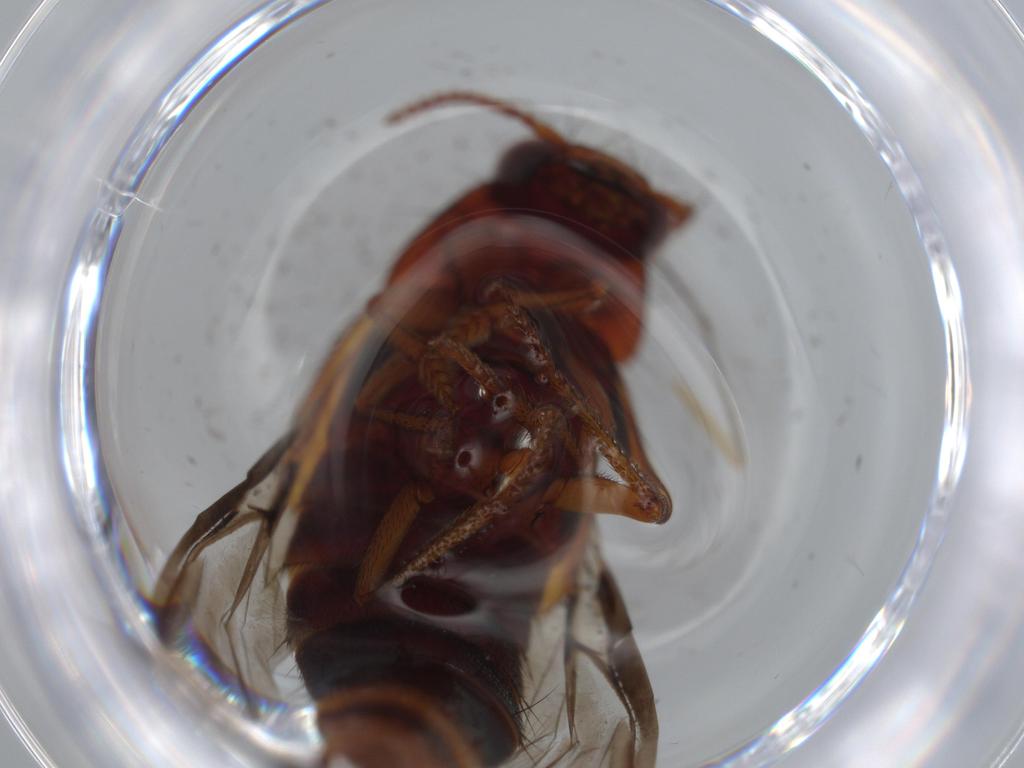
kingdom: Animalia
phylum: Arthropoda
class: Insecta
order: Coleoptera
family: Staphylinidae
